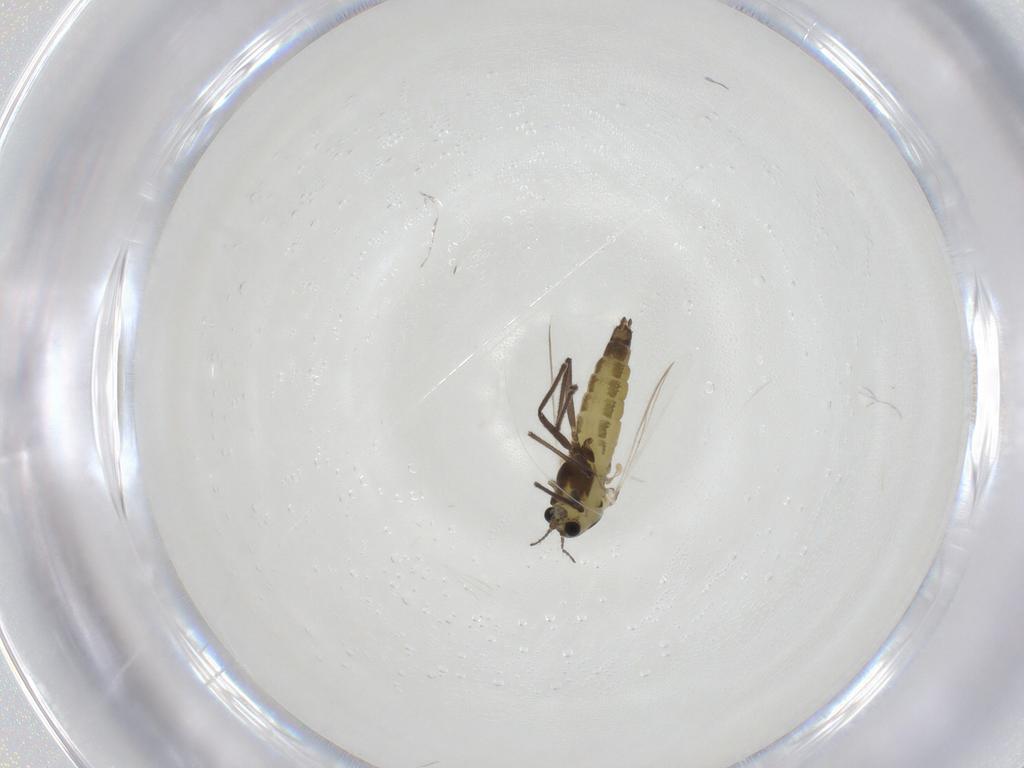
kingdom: Animalia
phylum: Arthropoda
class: Insecta
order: Diptera
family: Chironomidae
